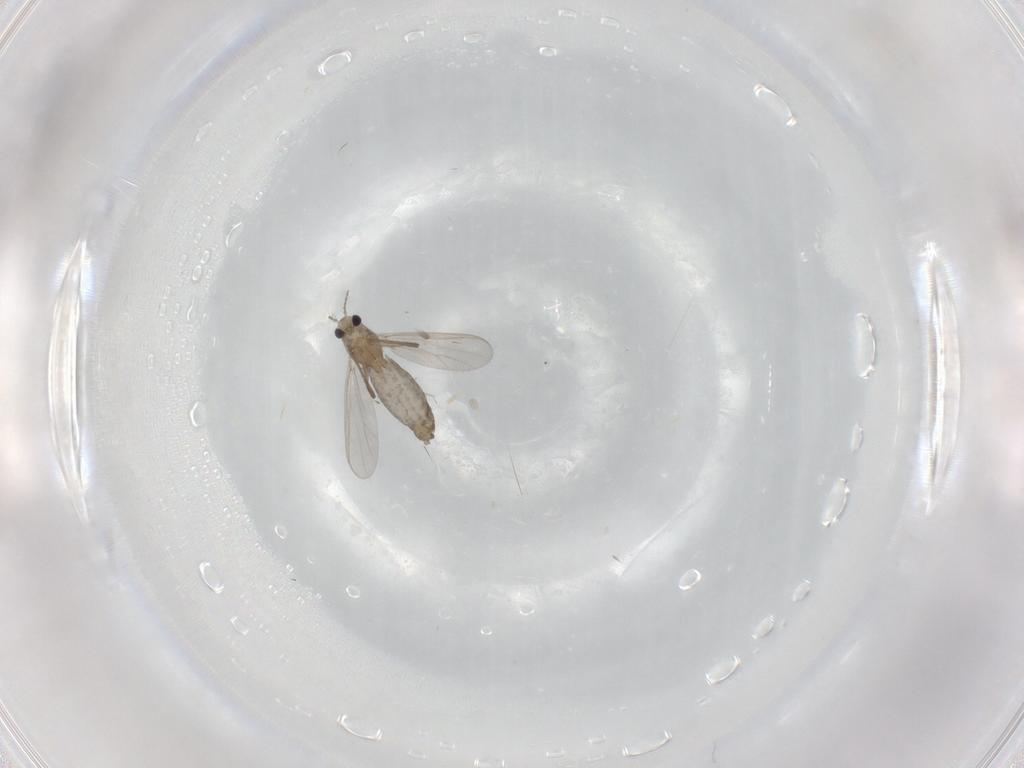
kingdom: Animalia
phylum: Arthropoda
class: Insecta
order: Diptera
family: Chironomidae
